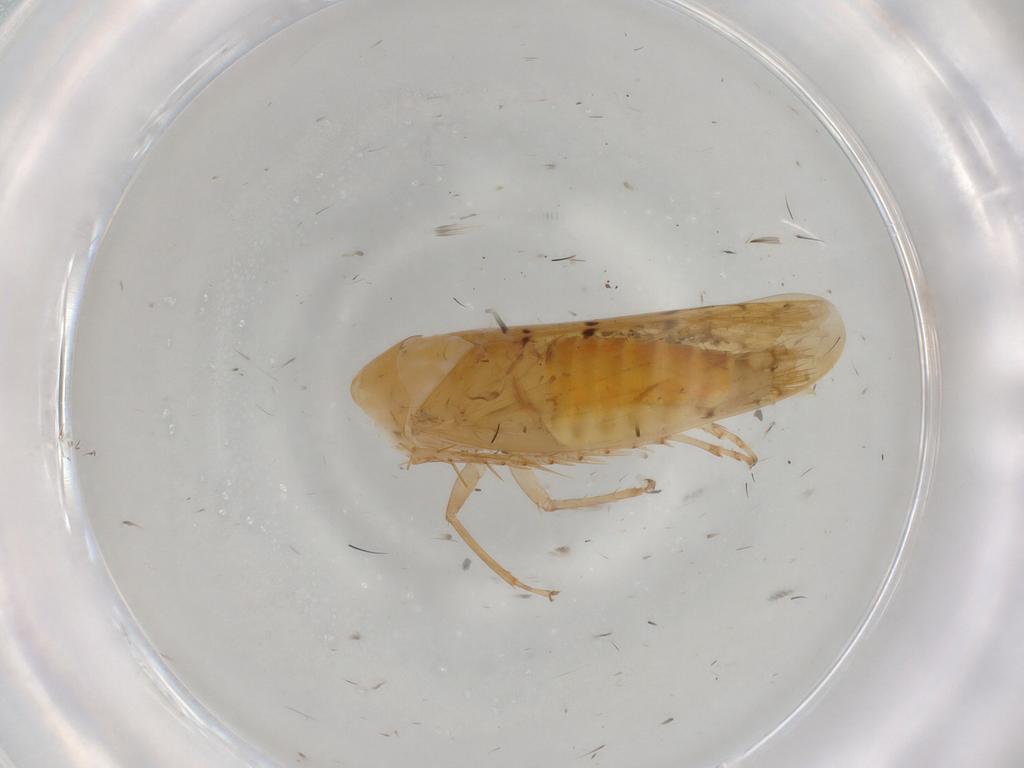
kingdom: Animalia
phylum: Arthropoda
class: Insecta
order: Hemiptera
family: Cicadellidae
